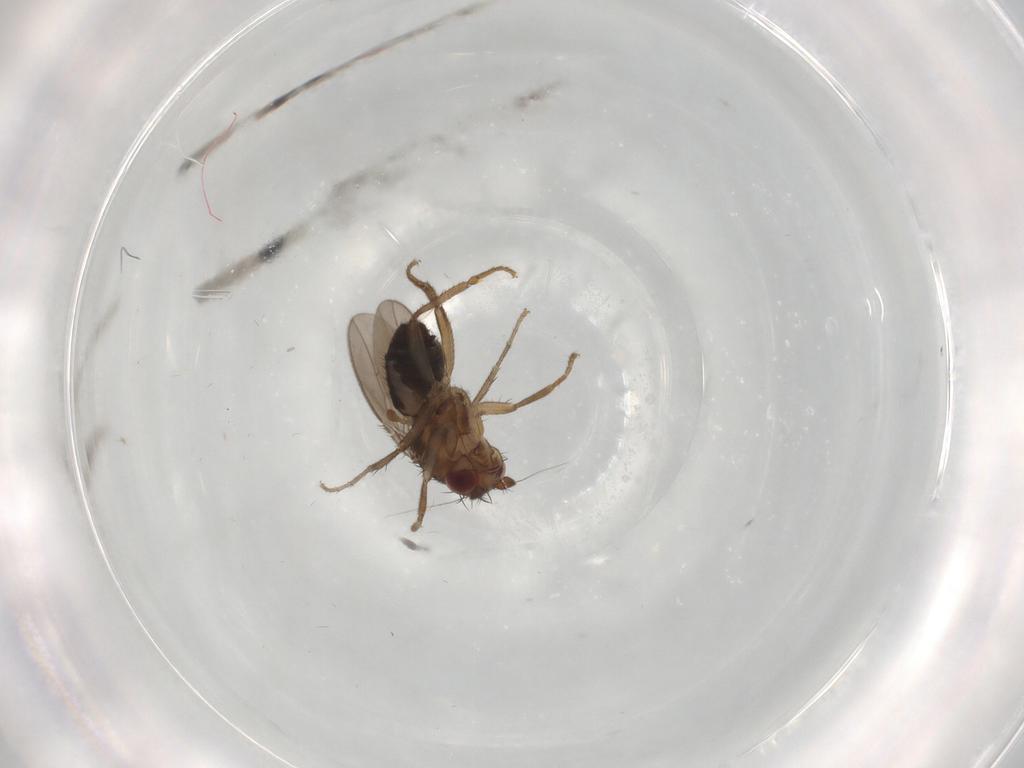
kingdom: Animalia
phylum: Arthropoda
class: Insecta
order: Diptera
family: Sphaeroceridae
